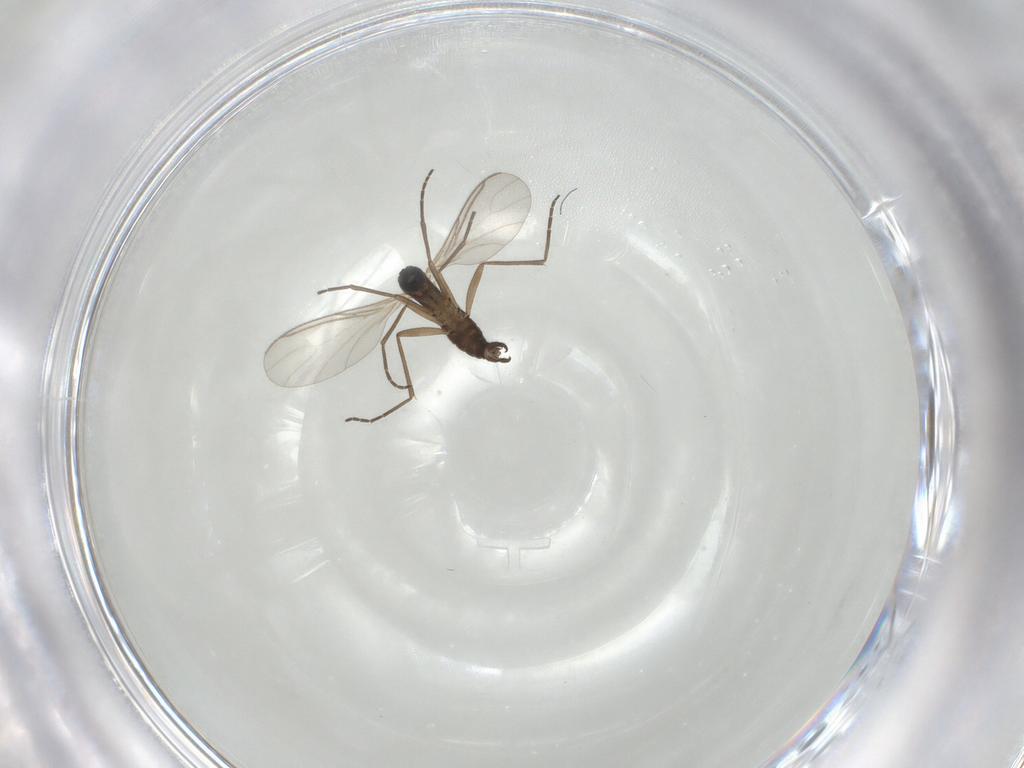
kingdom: Animalia
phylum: Arthropoda
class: Insecta
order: Diptera
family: Sciaridae
